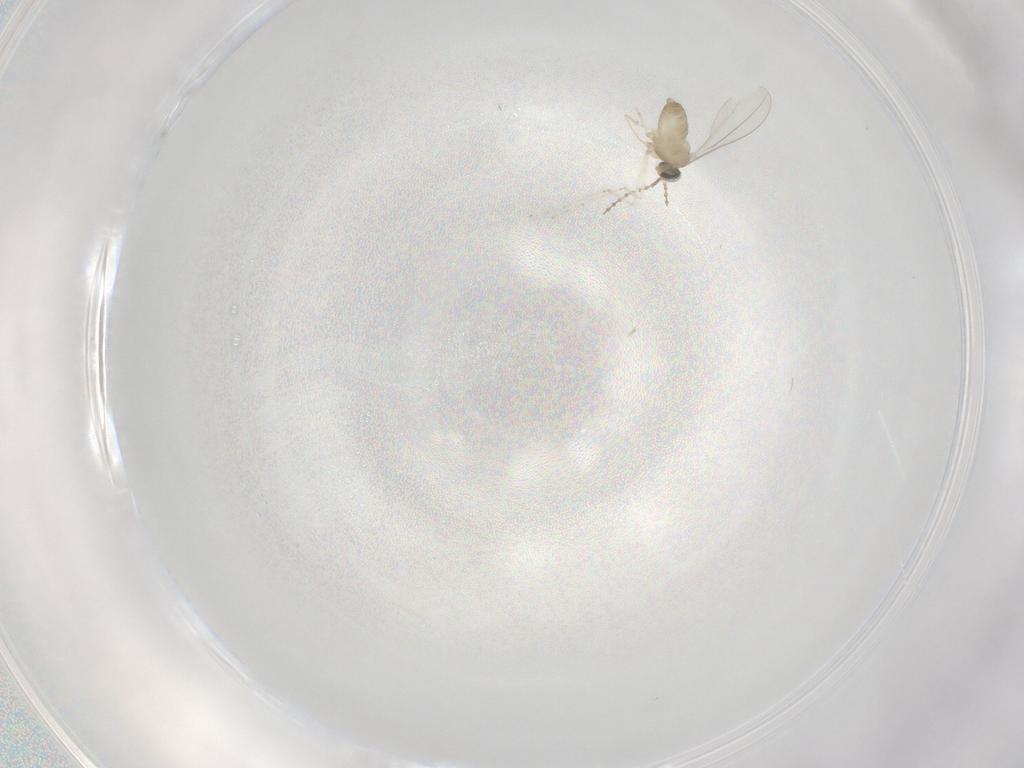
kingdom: Animalia
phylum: Arthropoda
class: Insecta
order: Diptera
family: Cecidomyiidae
